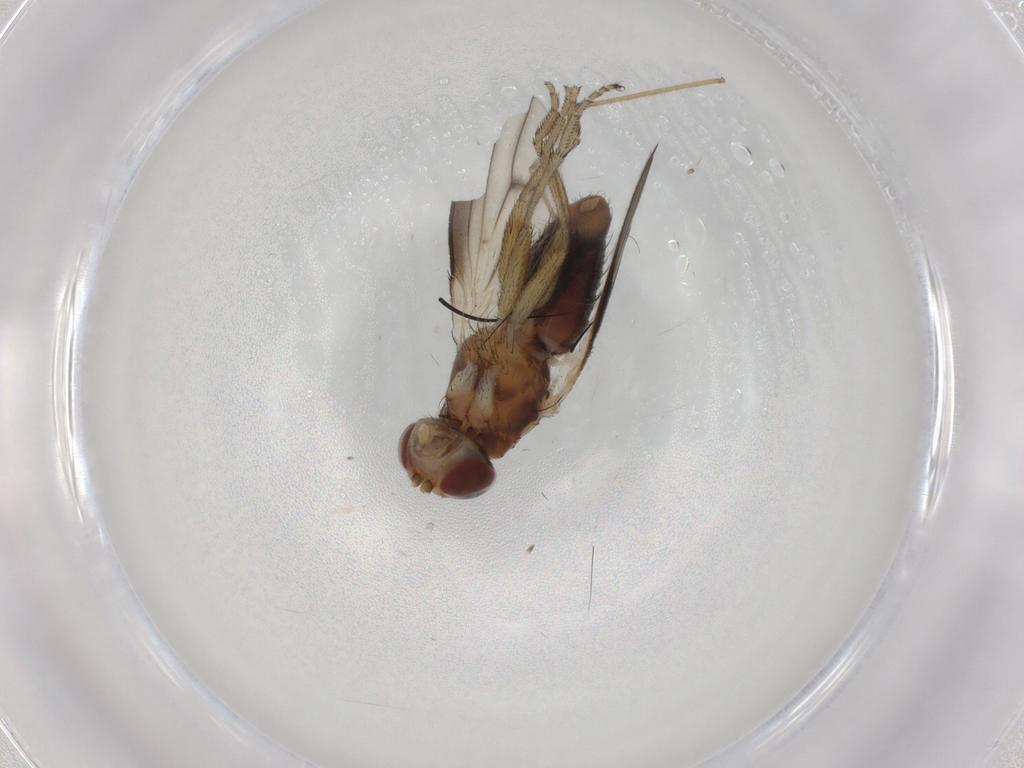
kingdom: Animalia
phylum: Arthropoda
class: Insecta
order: Diptera
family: Heleomyzidae
